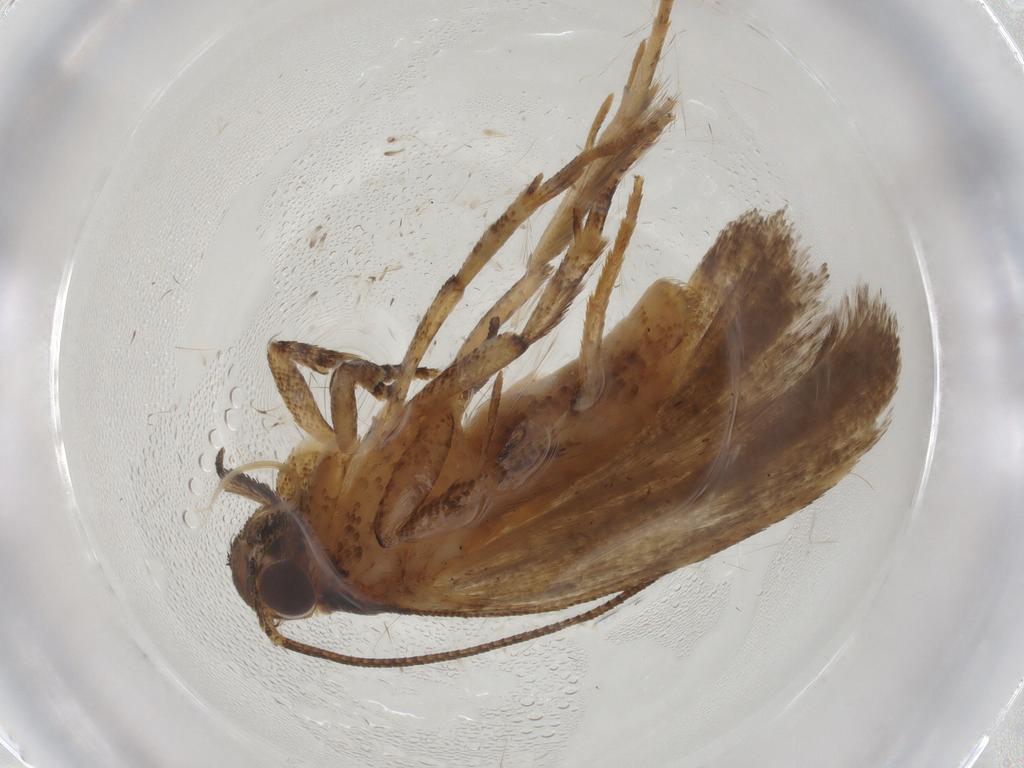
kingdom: Animalia
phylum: Arthropoda
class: Insecta
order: Lepidoptera
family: Gelechiidae
